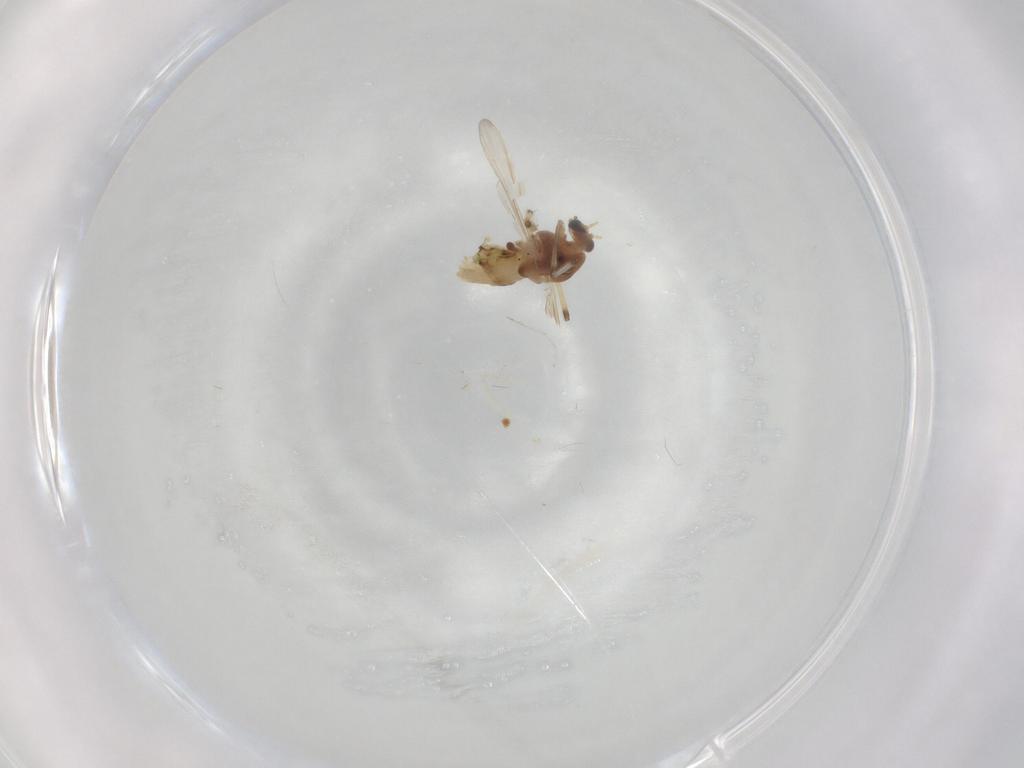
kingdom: Animalia
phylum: Arthropoda
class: Insecta
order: Diptera
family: Chironomidae
